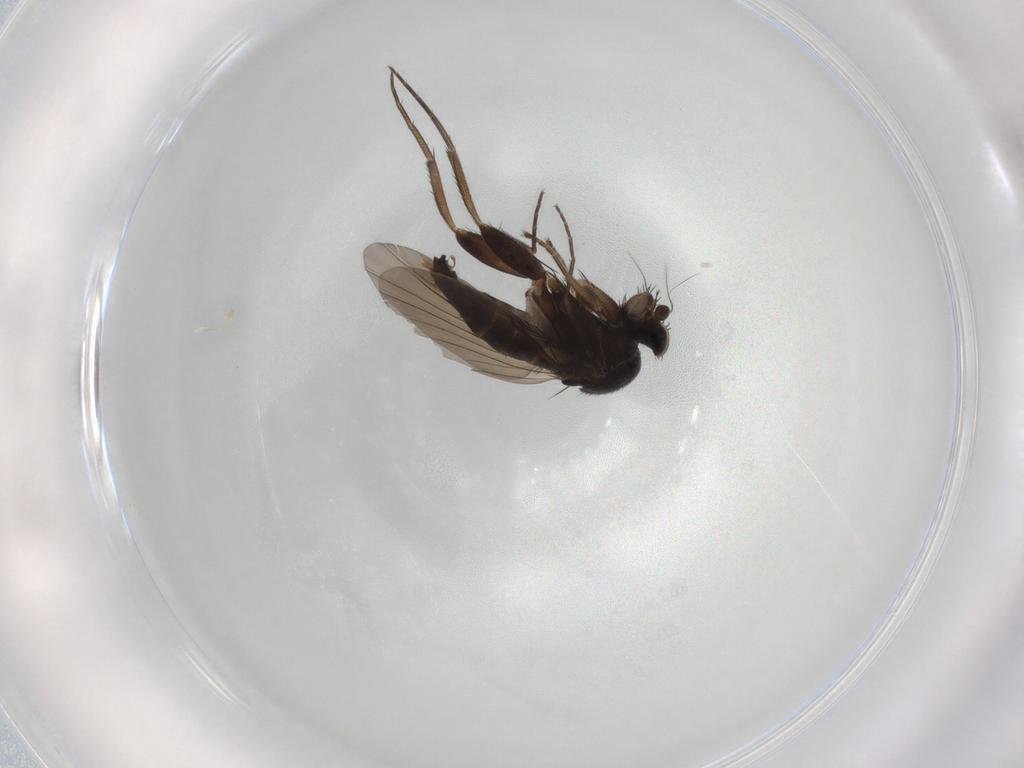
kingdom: Animalia
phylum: Arthropoda
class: Insecta
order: Diptera
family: Phoridae
